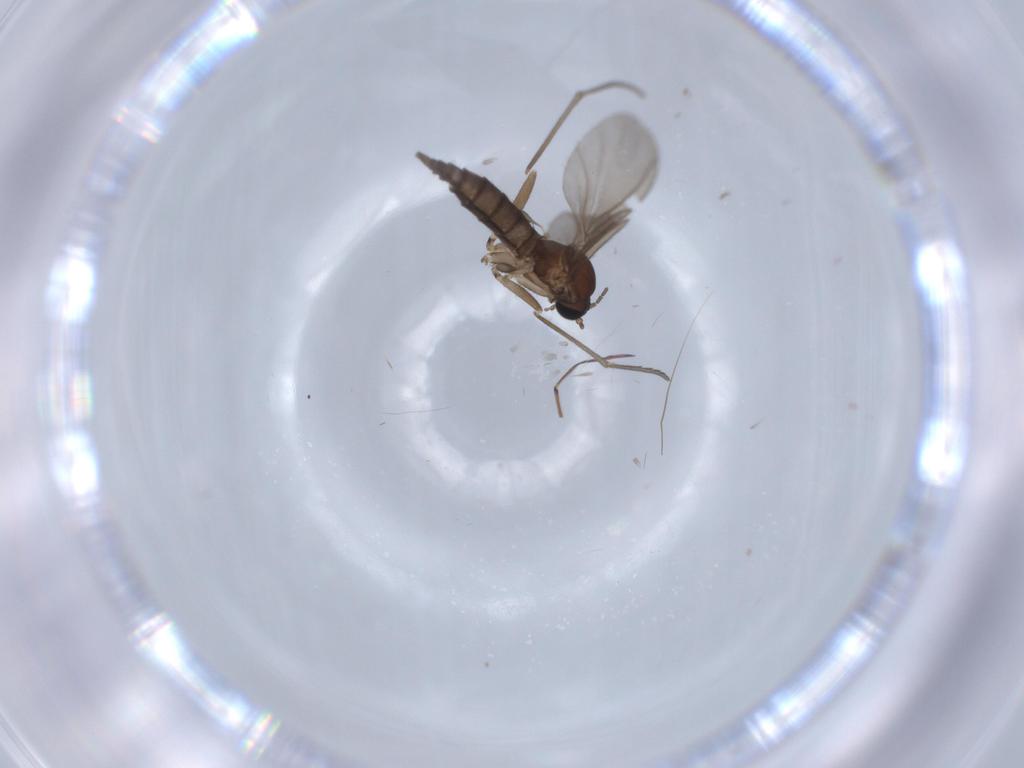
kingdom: Animalia
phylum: Arthropoda
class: Insecta
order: Diptera
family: Sciaridae
